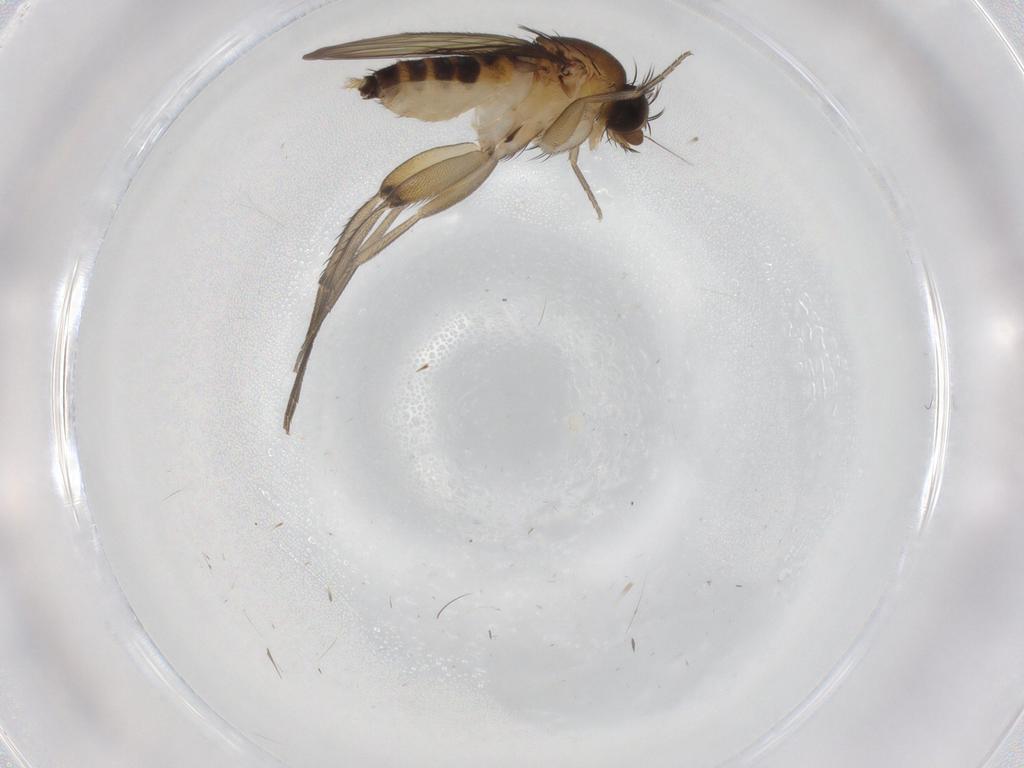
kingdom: Animalia
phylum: Arthropoda
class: Insecta
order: Diptera
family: Phoridae
